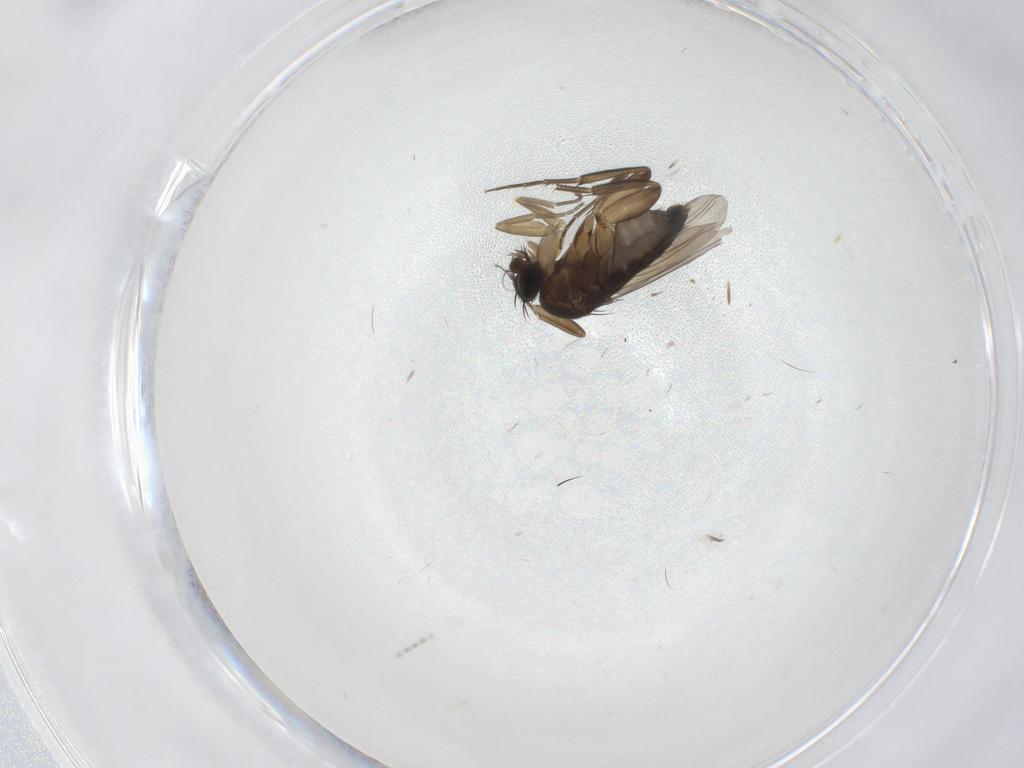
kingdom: Animalia
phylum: Arthropoda
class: Insecta
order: Diptera
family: Phoridae
